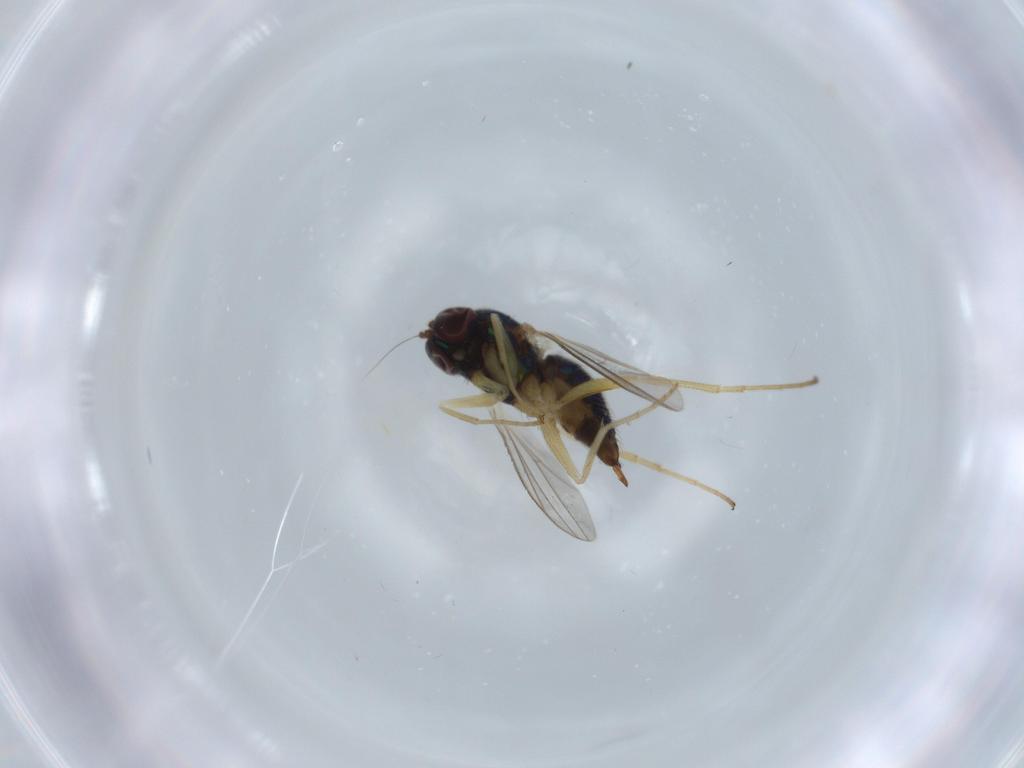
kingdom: Animalia
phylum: Arthropoda
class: Insecta
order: Diptera
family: Dolichopodidae
